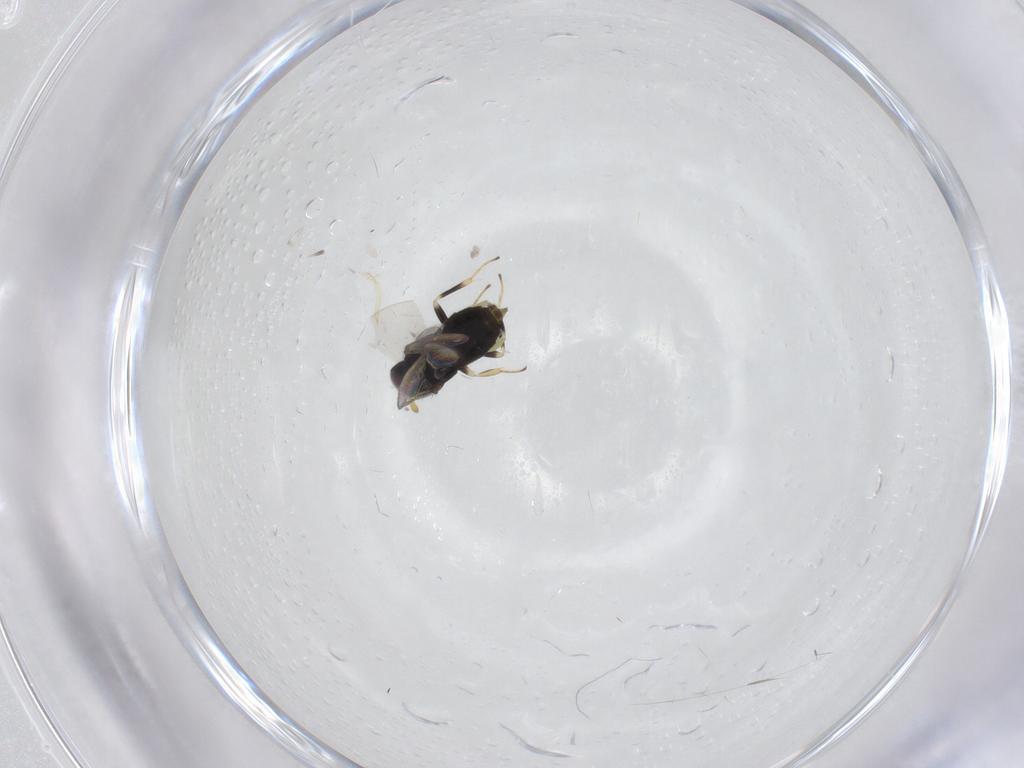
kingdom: Animalia
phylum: Arthropoda
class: Insecta
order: Hymenoptera
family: Aphelinidae
